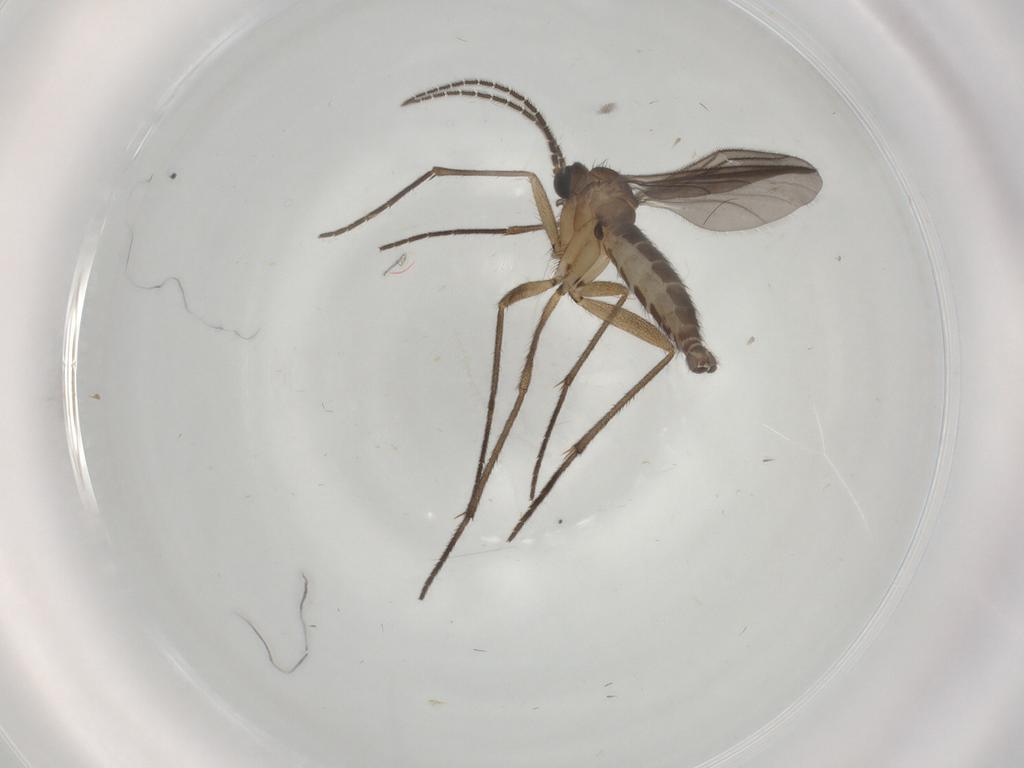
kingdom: Animalia
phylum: Arthropoda
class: Insecta
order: Diptera
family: Sciaridae
